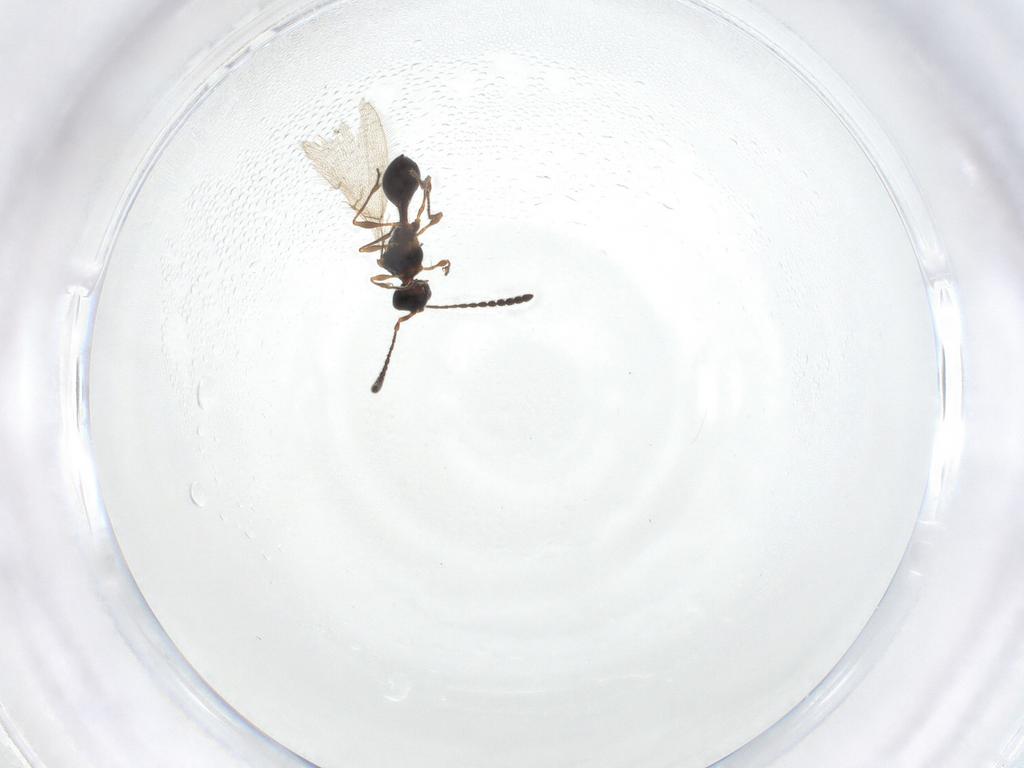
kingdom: Animalia
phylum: Arthropoda
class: Insecta
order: Hymenoptera
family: Diapriidae
